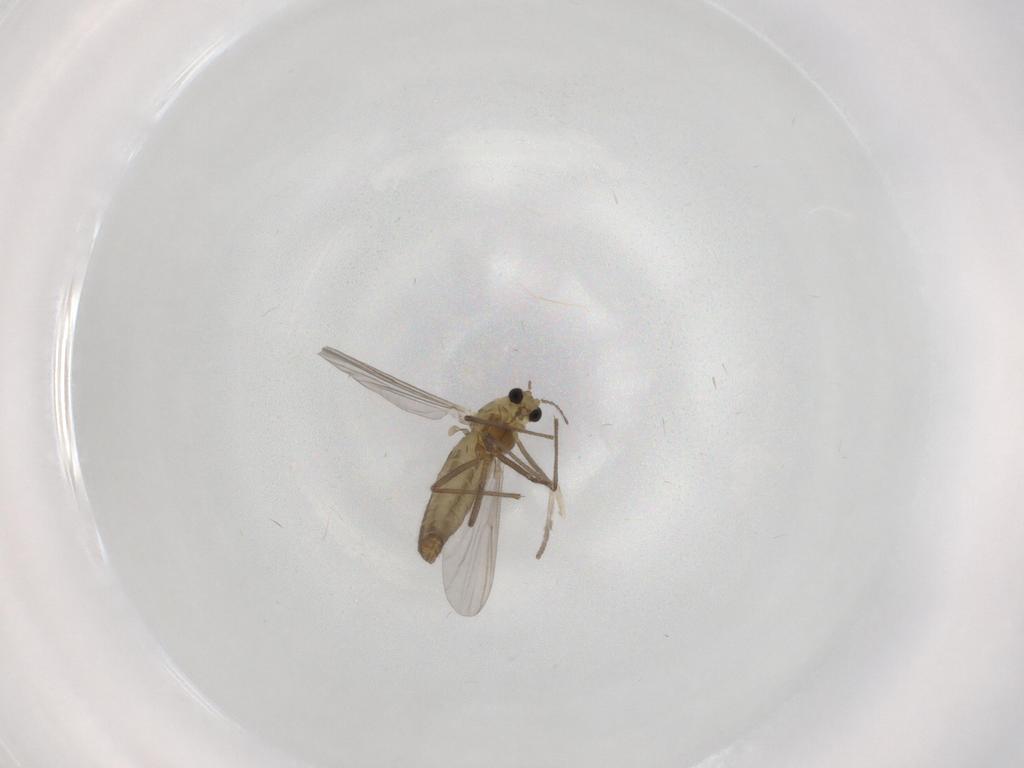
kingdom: Animalia
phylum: Arthropoda
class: Insecta
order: Diptera
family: Chironomidae
